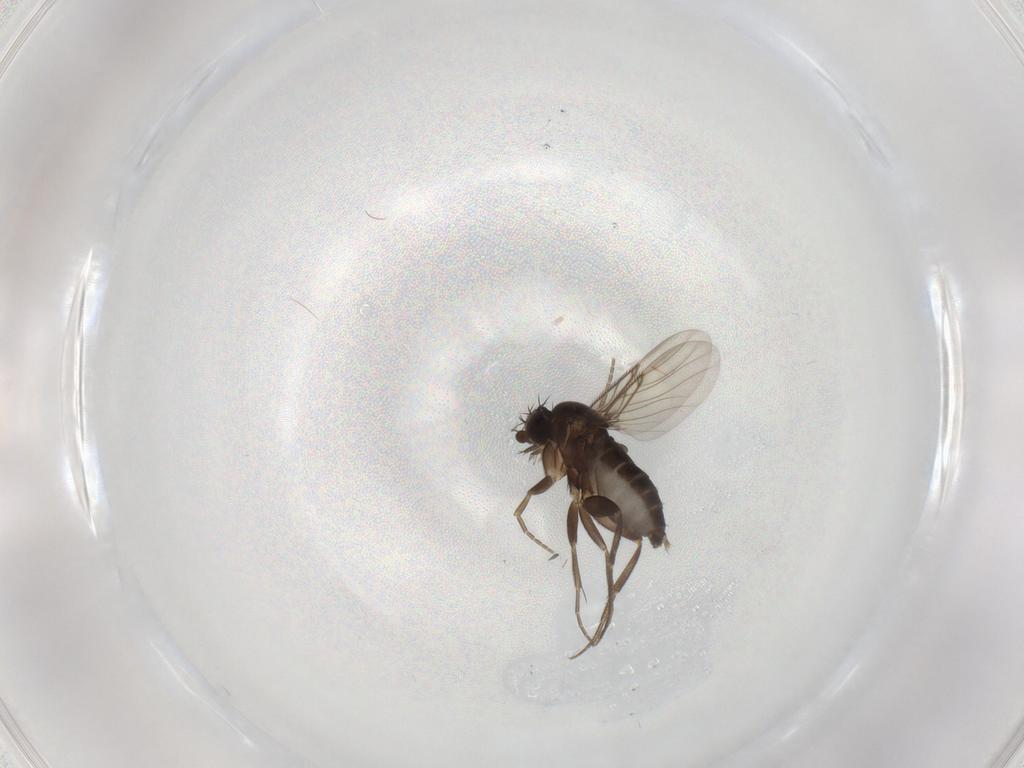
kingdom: Animalia
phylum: Arthropoda
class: Insecta
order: Diptera
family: Phoridae
